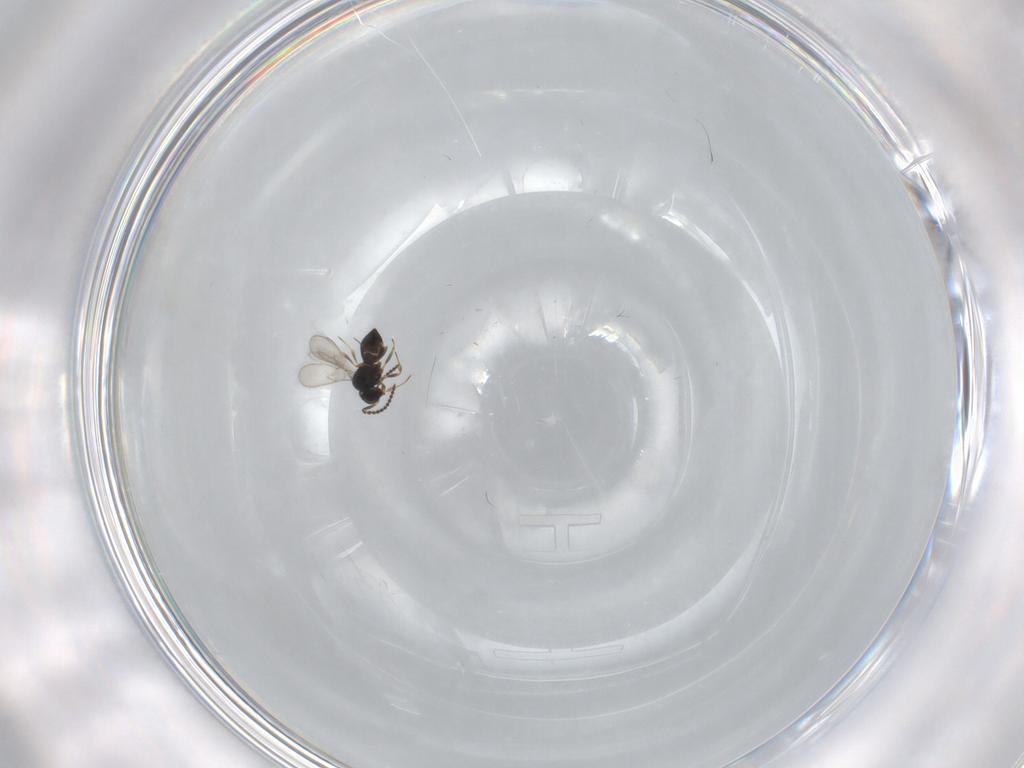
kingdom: Animalia
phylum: Arthropoda
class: Insecta
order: Hymenoptera
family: Scelionidae
